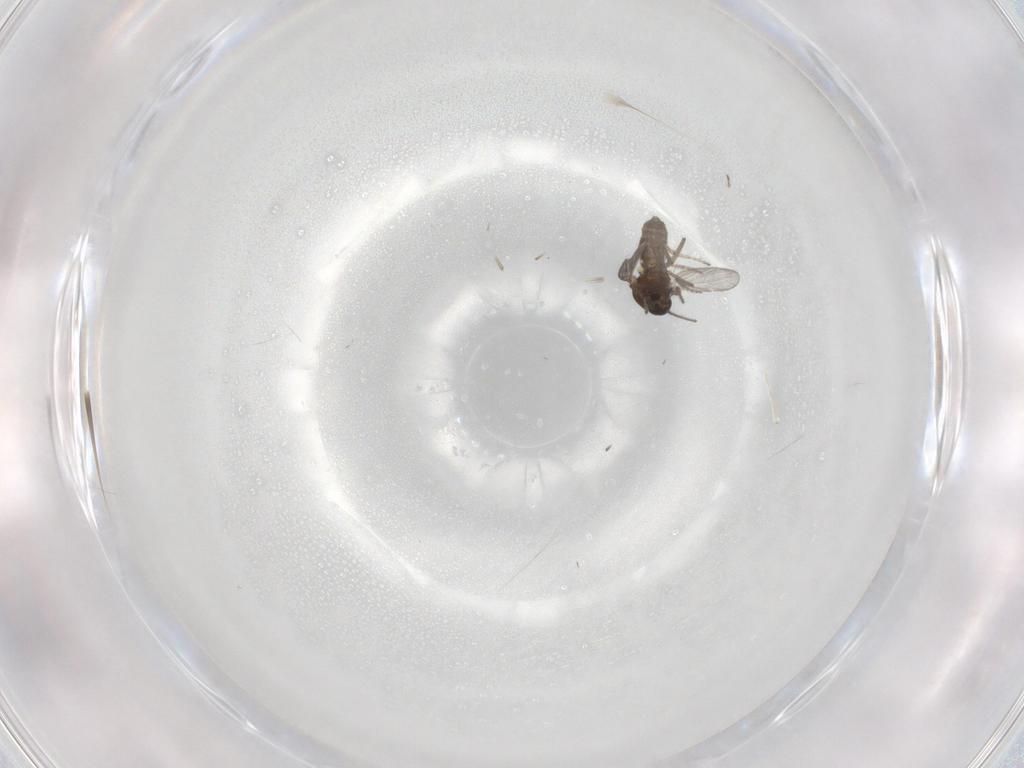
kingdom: Animalia
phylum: Arthropoda
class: Insecta
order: Diptera
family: Ceratopogonidae
